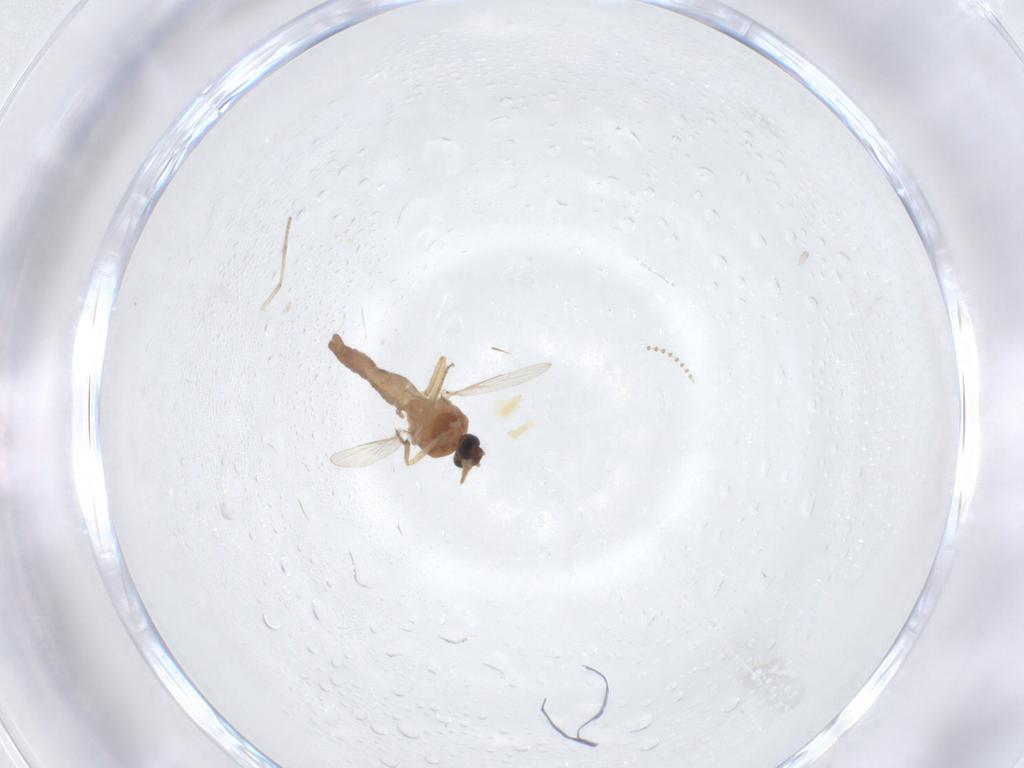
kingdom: Animalia
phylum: Arthropoda
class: Insecta
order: Diptera
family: Ceratopogonidae
